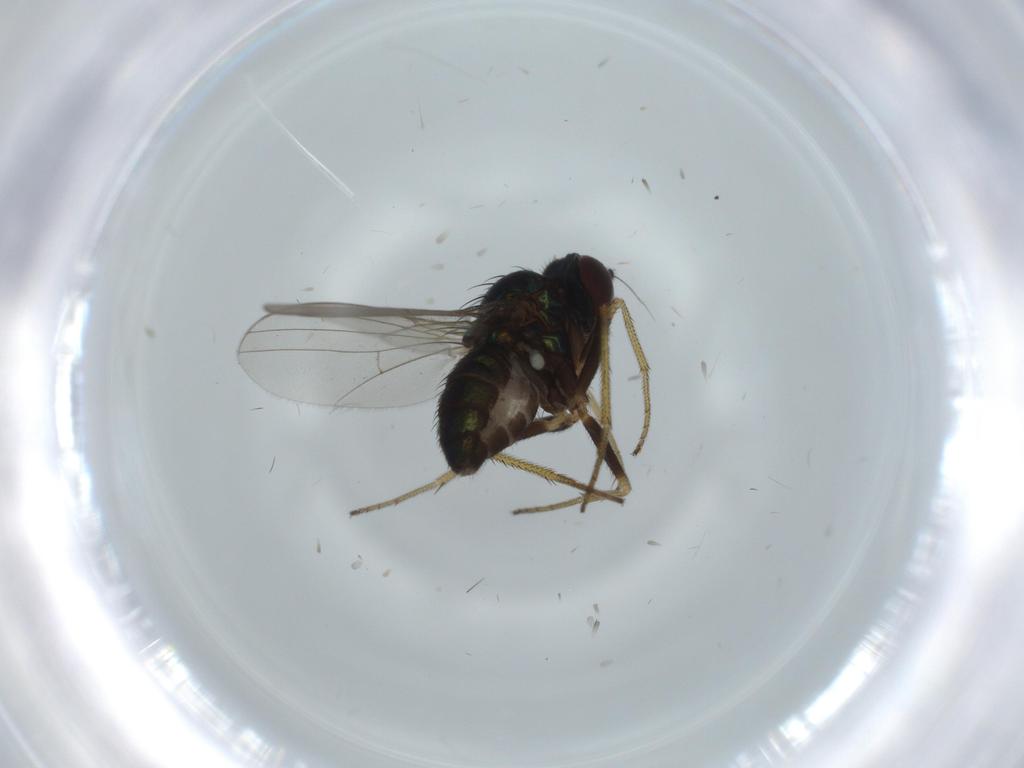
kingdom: Animalia
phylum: Arthropoda
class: Insecta
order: Diptera
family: Dolichopodidae
